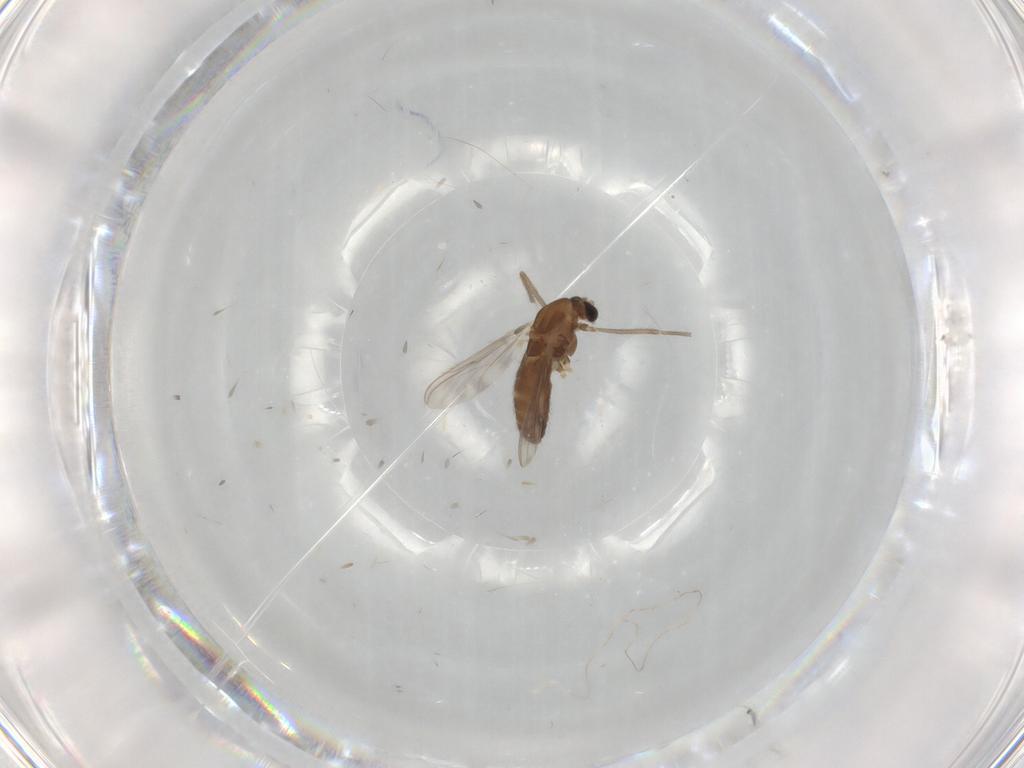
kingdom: Animalia
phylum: Arthropoda
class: Insecta
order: Diptera
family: Chironomidae
